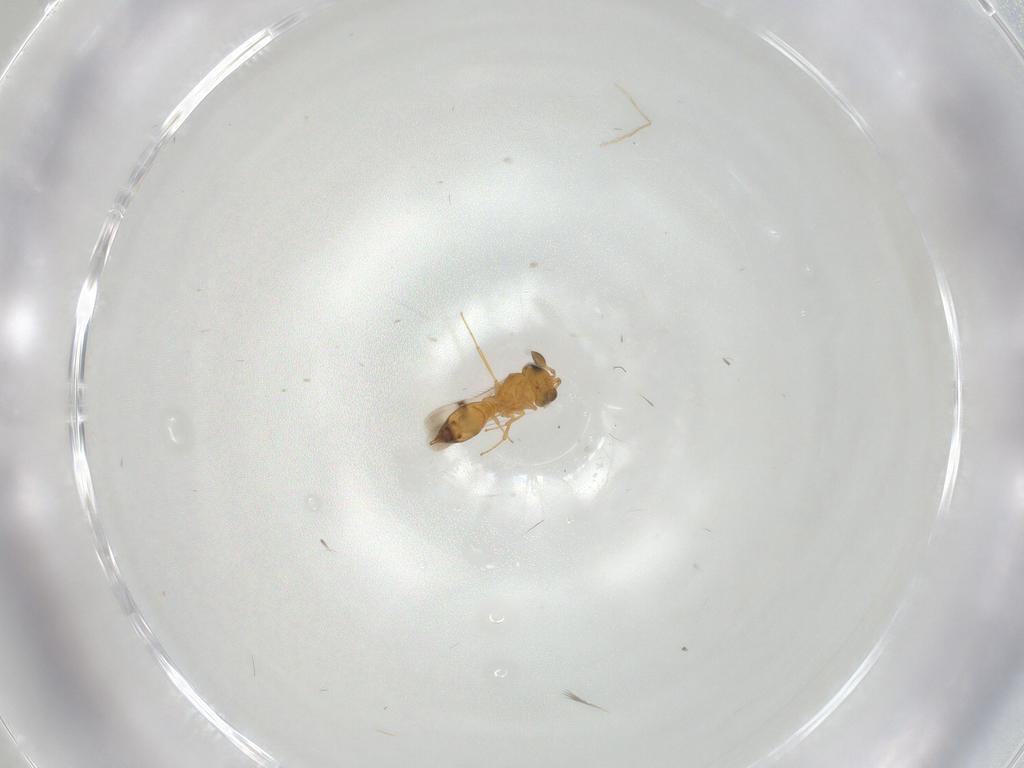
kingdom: Animalia
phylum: Arthropoda
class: Insecta
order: Hymenoptera
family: Scelionidae
